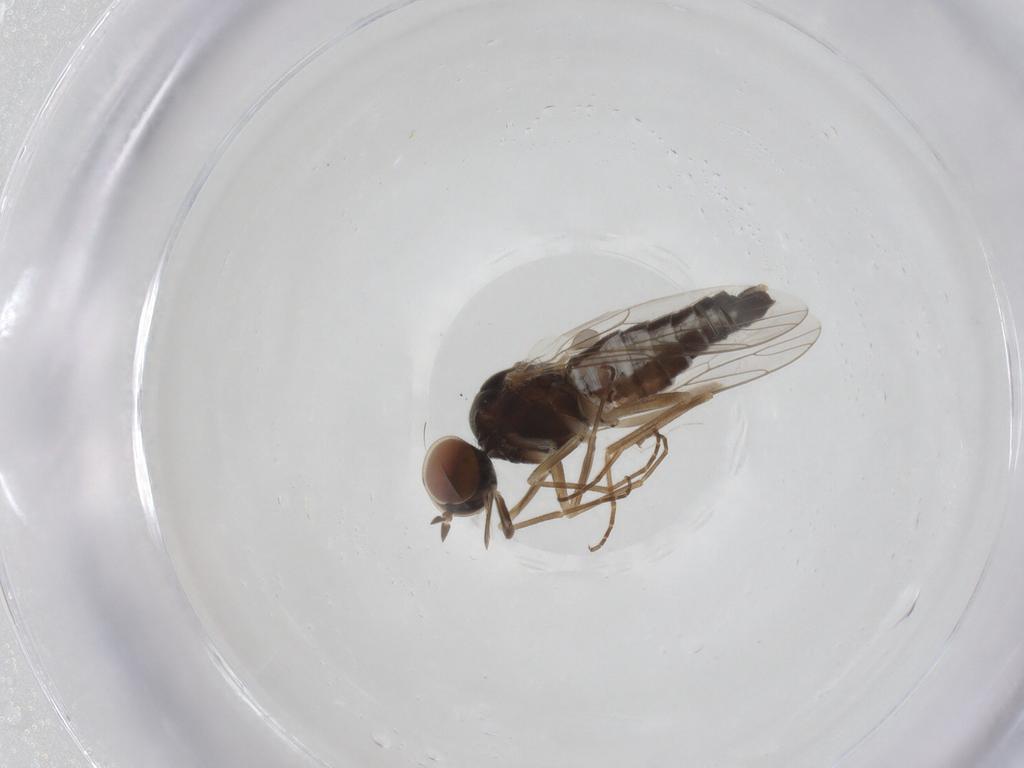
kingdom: Animalia
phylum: Arthropoda
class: Insecta
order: Diptera
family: Scenopinidae
